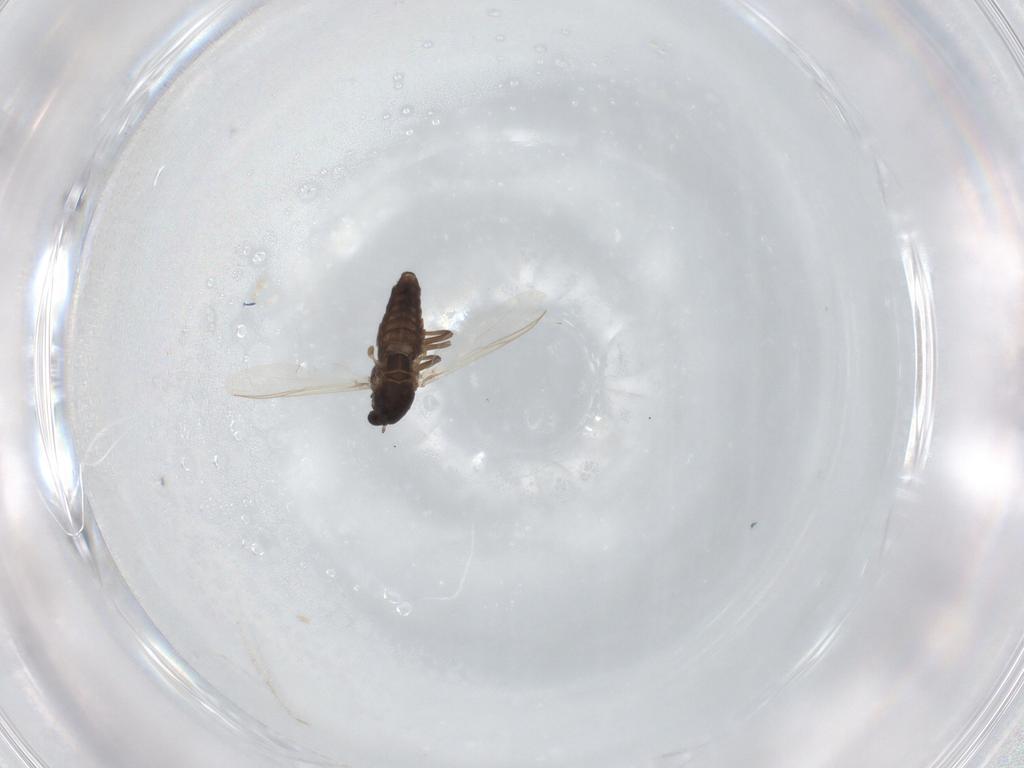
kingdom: Animalia
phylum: Arthropoda
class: Insecta
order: Diptera
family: Chironomidae
